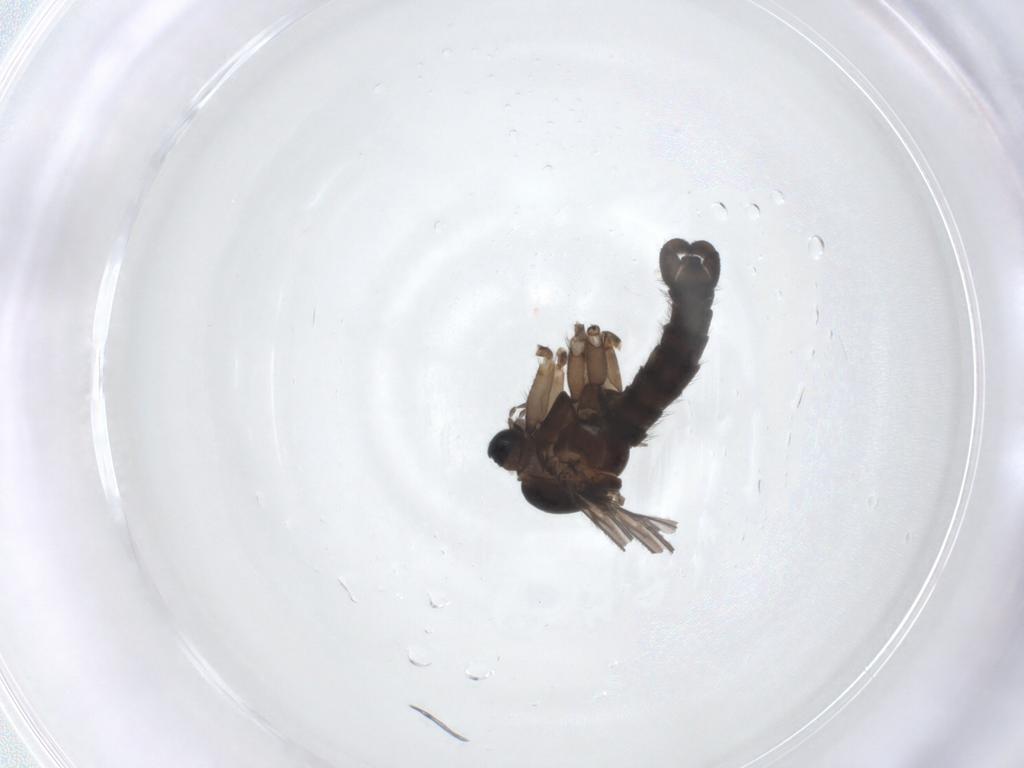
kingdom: Animalia
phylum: Arthropoda
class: Insecta
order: Diptera
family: Sciaridae
